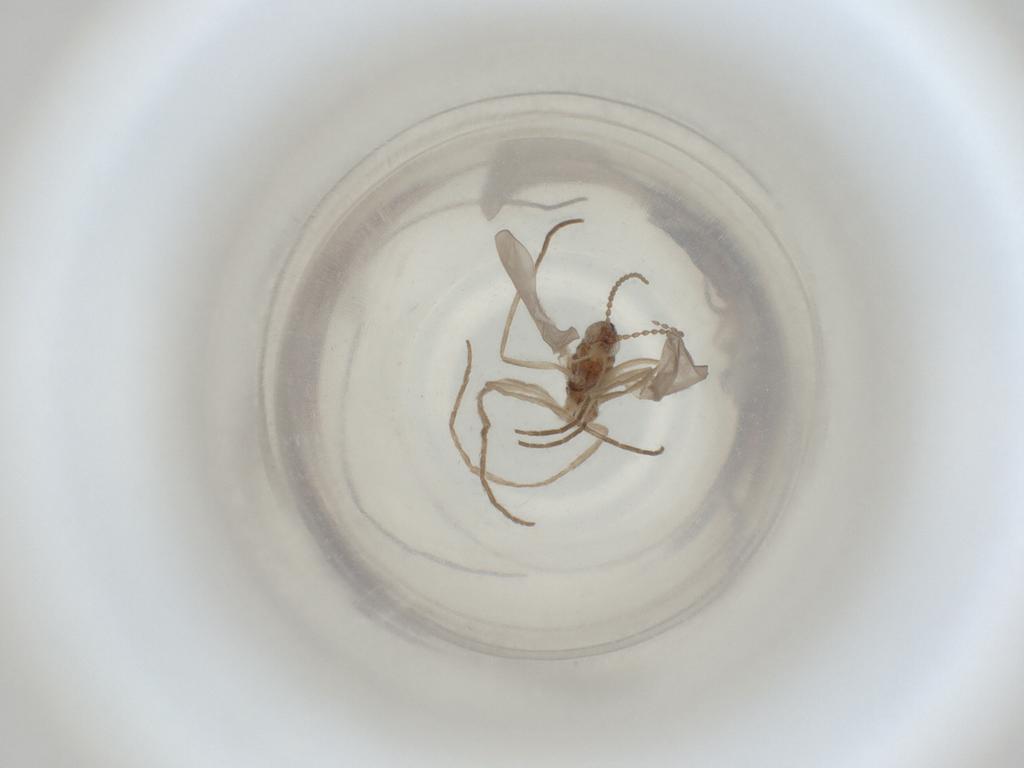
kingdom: Animalia
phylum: Arthropoda
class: Insecta
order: Diptera
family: Cecidomyiidae
